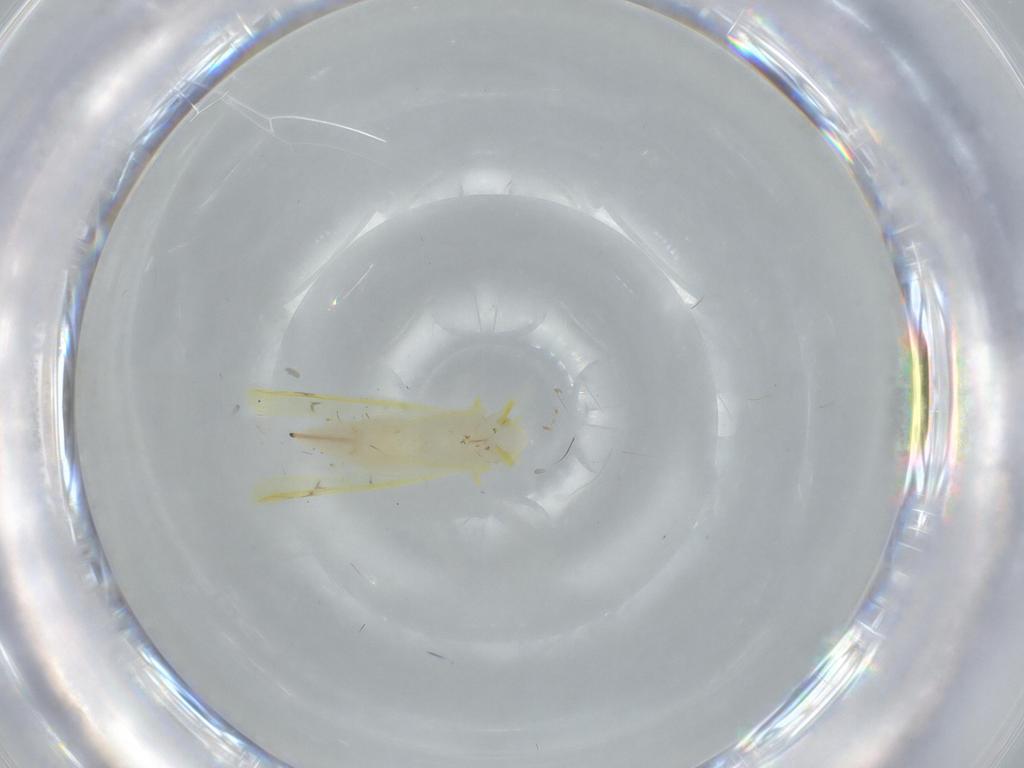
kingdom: Animalia
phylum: Arthropoda
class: Insecta
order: Hemiptera
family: Cicadellidae
